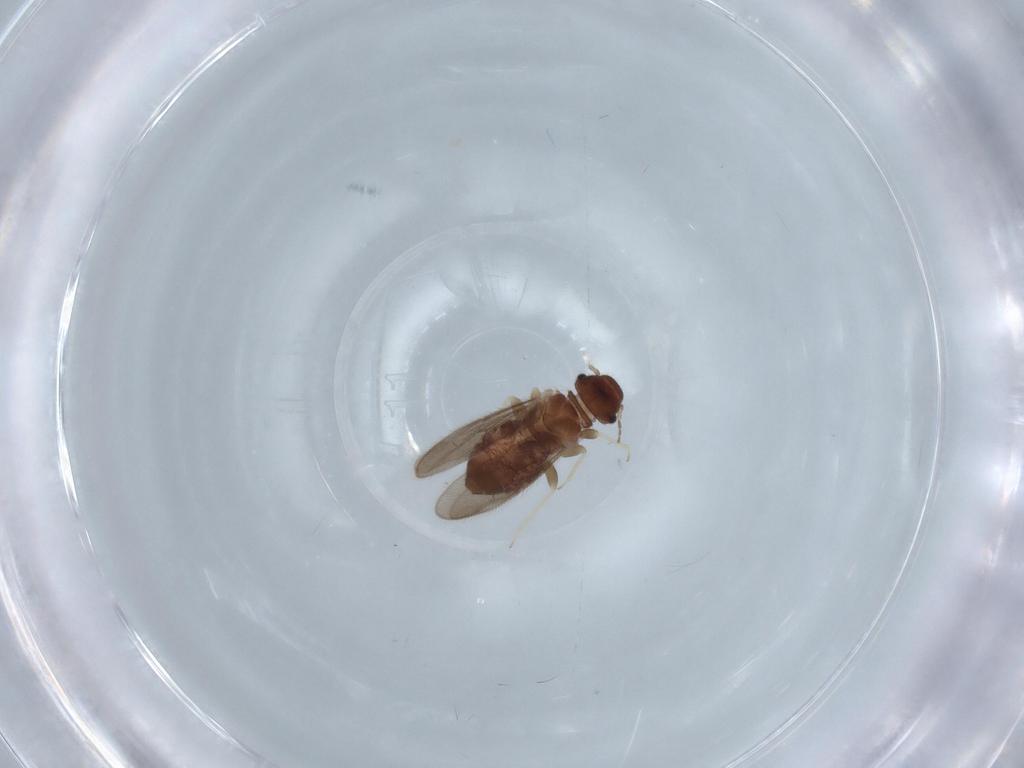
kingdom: Animalia
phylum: Arthropoda
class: Insecta
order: Psocodea
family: Archipsocidae
